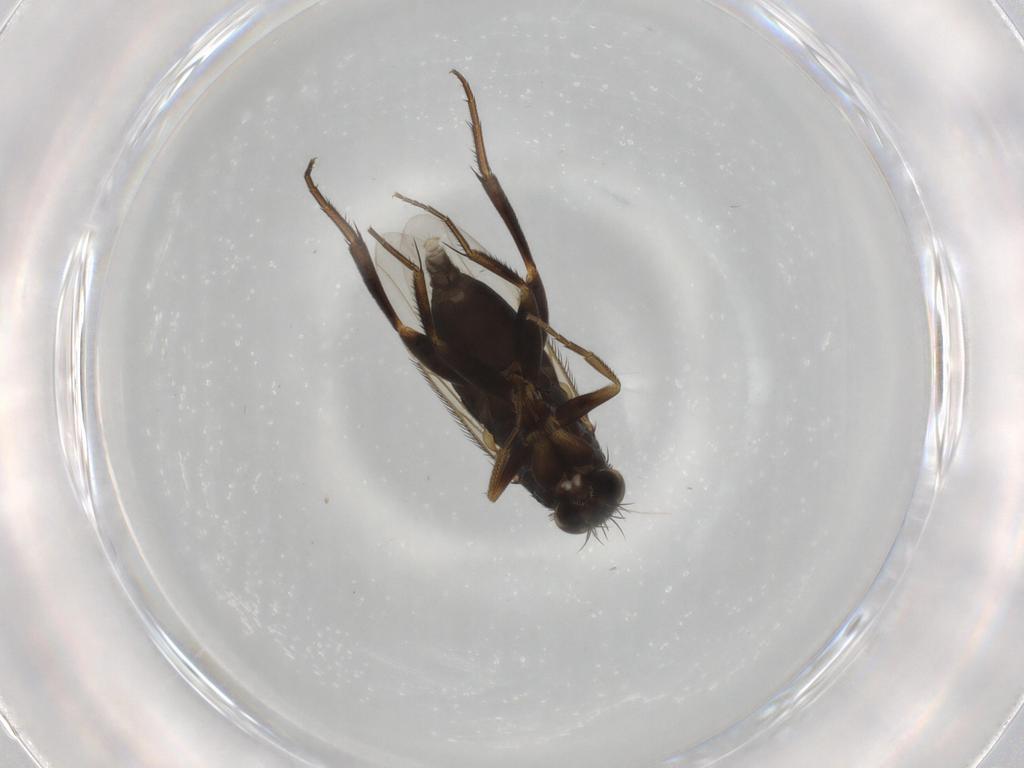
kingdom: Animalia
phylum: Arthropoda
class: Insecta
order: Diptera
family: Phoridae
